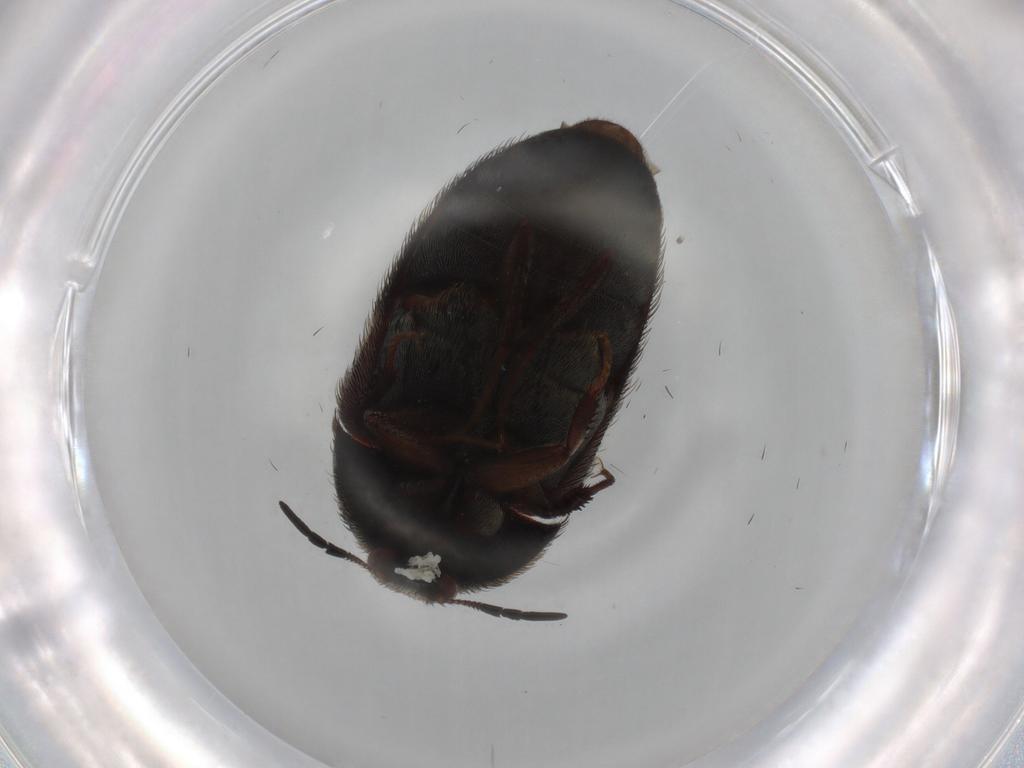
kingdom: Animalia
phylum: Arthropoda
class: Insecta
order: Coleoptera
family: Dermestidae
